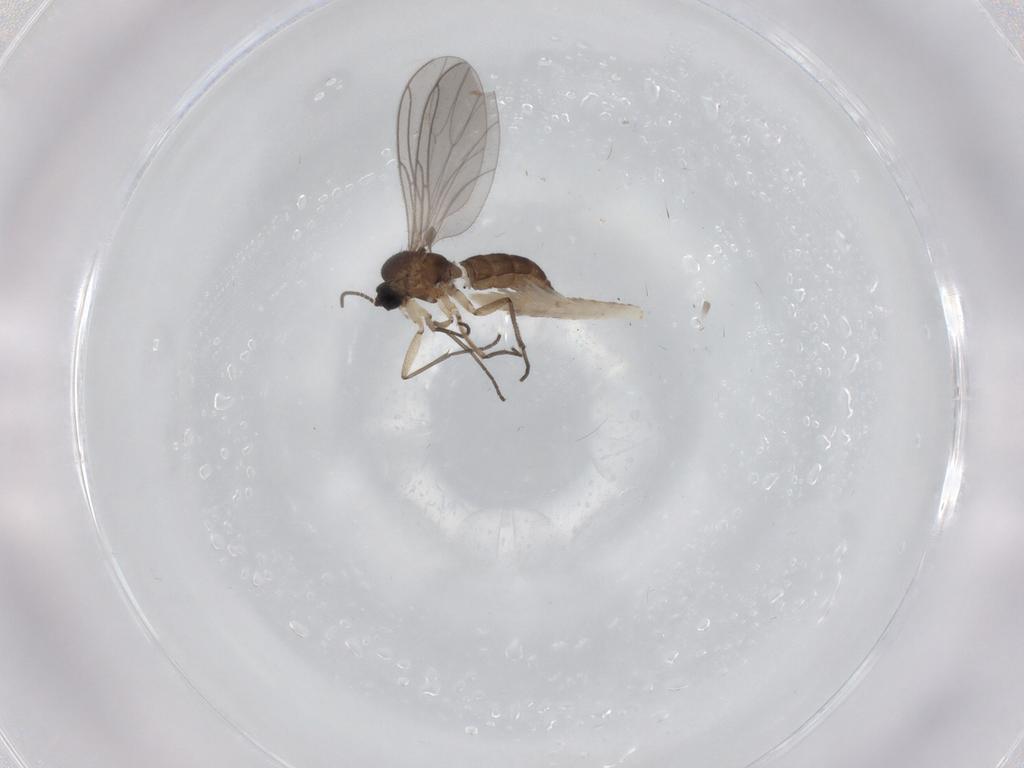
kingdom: Animalia
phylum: Arthropoda
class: Insecta
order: Diptera
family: Sciaridae
